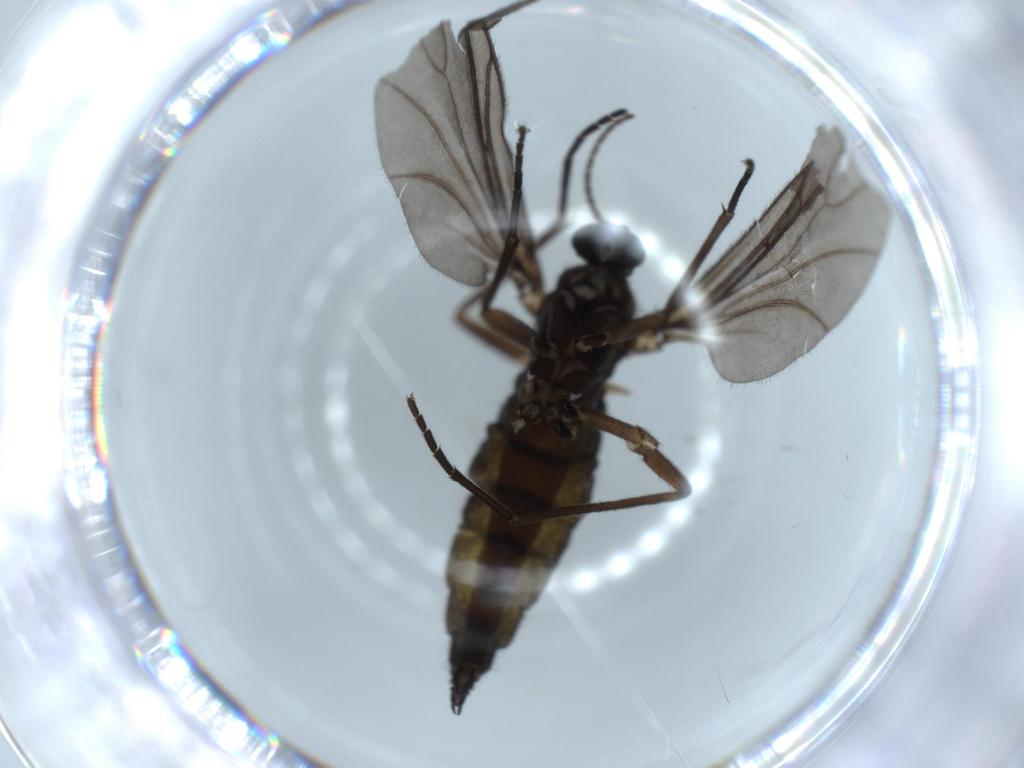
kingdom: Animalia
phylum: Arthropoda
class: Insecta
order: Diptera
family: Sciaridae
